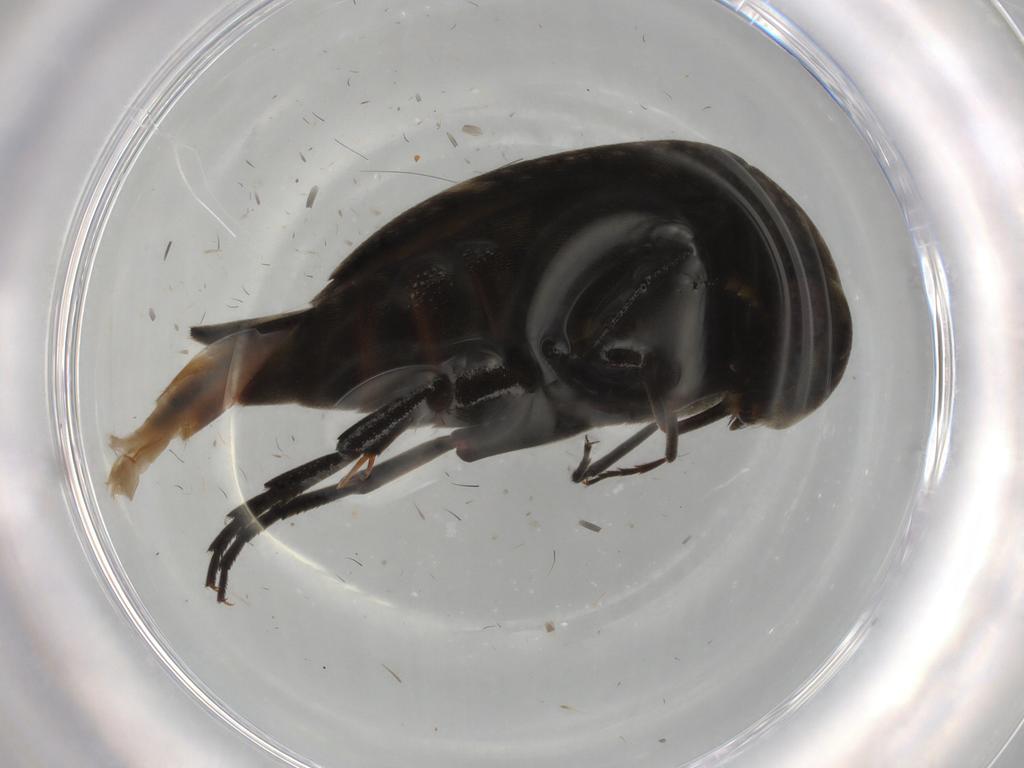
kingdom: Animalia
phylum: Arthropoda
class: Insecta
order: Coleoptera
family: Mordellidae
